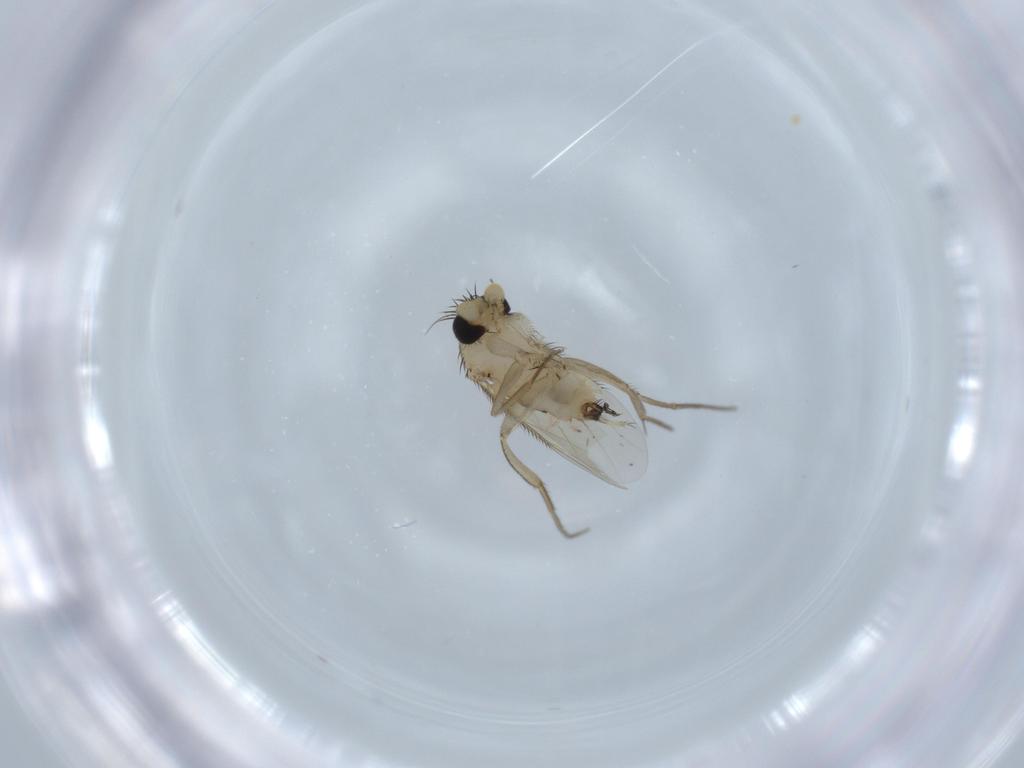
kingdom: Animalia
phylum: Arthropoda
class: Insecta
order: Diptera
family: Phoridae
